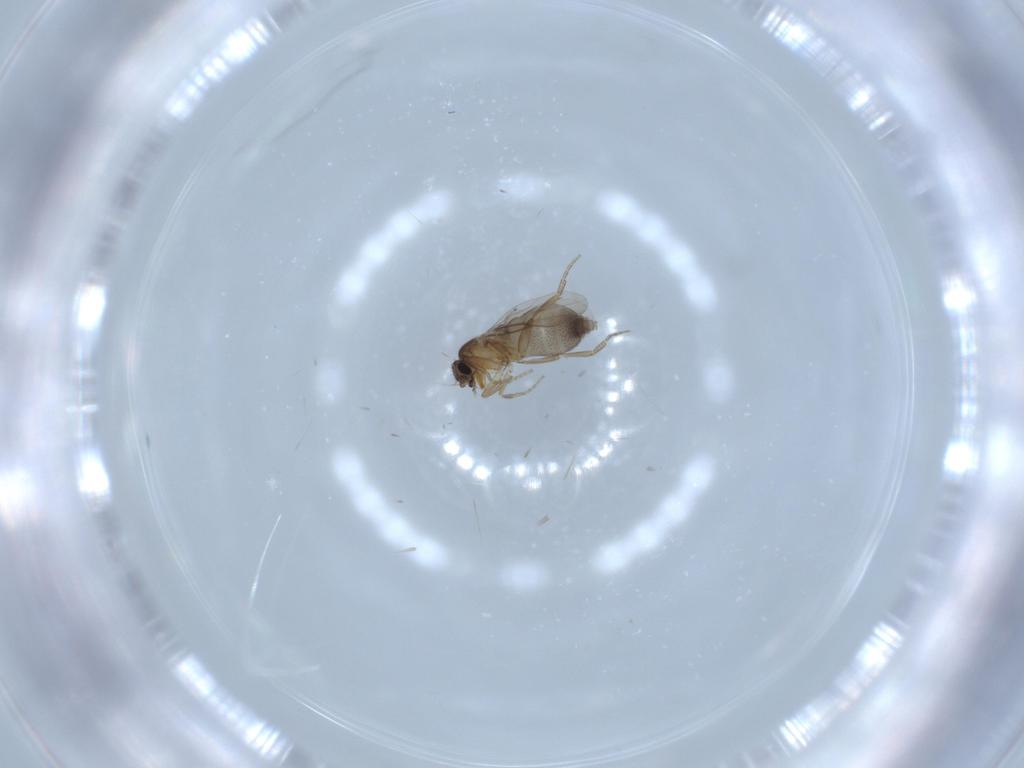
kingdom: Animalia
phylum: Arthropoda
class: Insecta
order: Diptera
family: Phoridae
